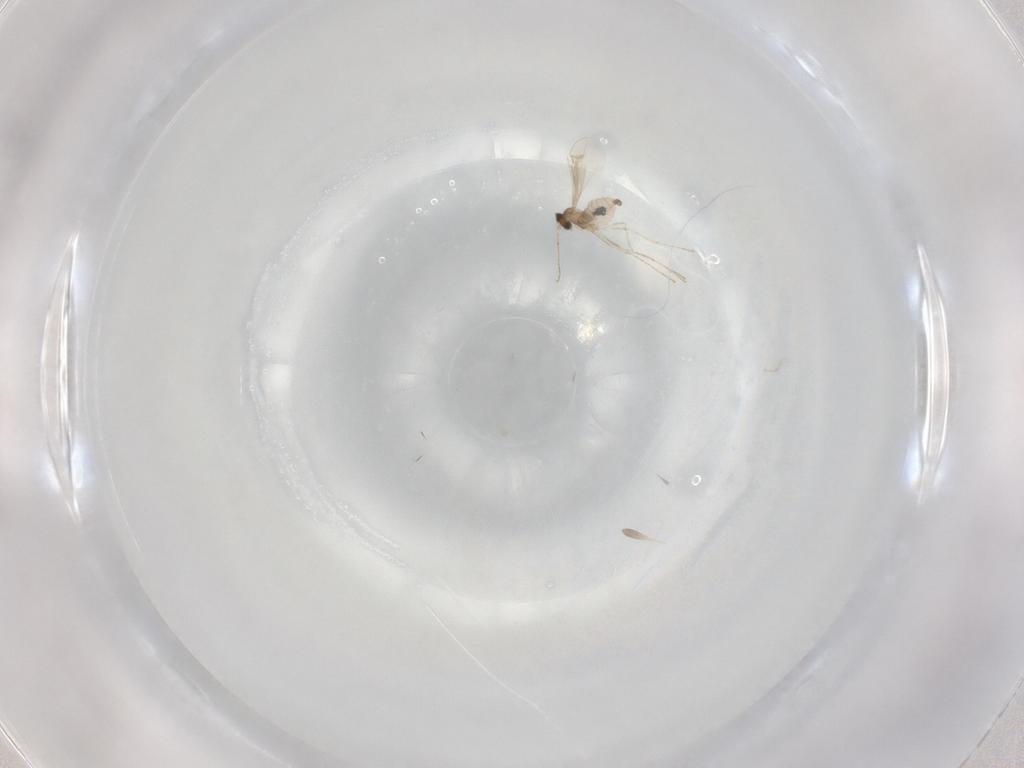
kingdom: Animalia
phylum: Arthropoda
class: Insecta
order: Diptera
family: Cecidomyiidae
